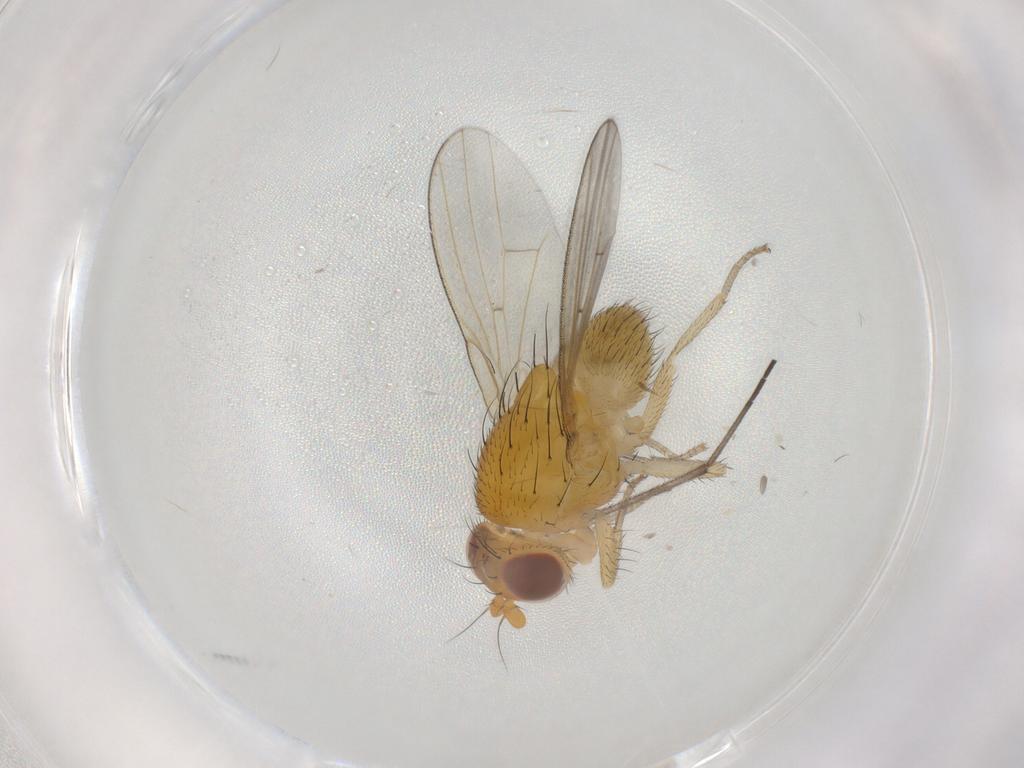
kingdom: Animalia
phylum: Arthropoda
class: Insecta
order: Diptera
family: Sciaridae
